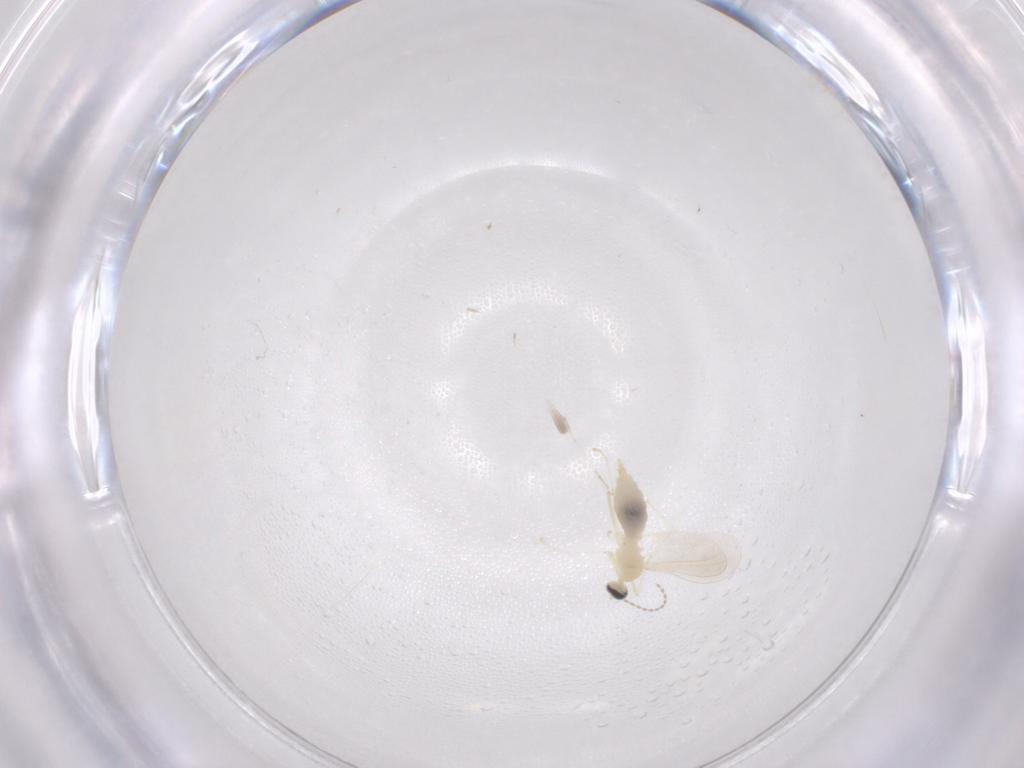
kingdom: Animalia
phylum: Arthropoda
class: Insecta
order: Diptera
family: Cecidomyiidae
